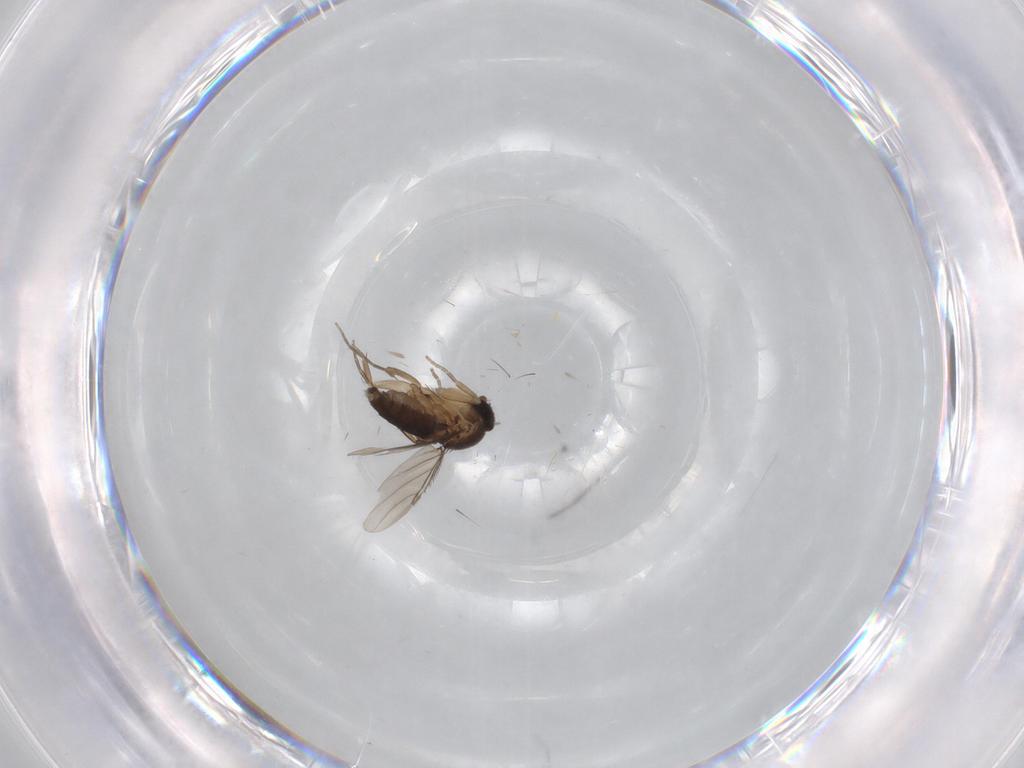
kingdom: Animalia
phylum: Arthropoda
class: Insecta
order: Diptera
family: Phoridae
